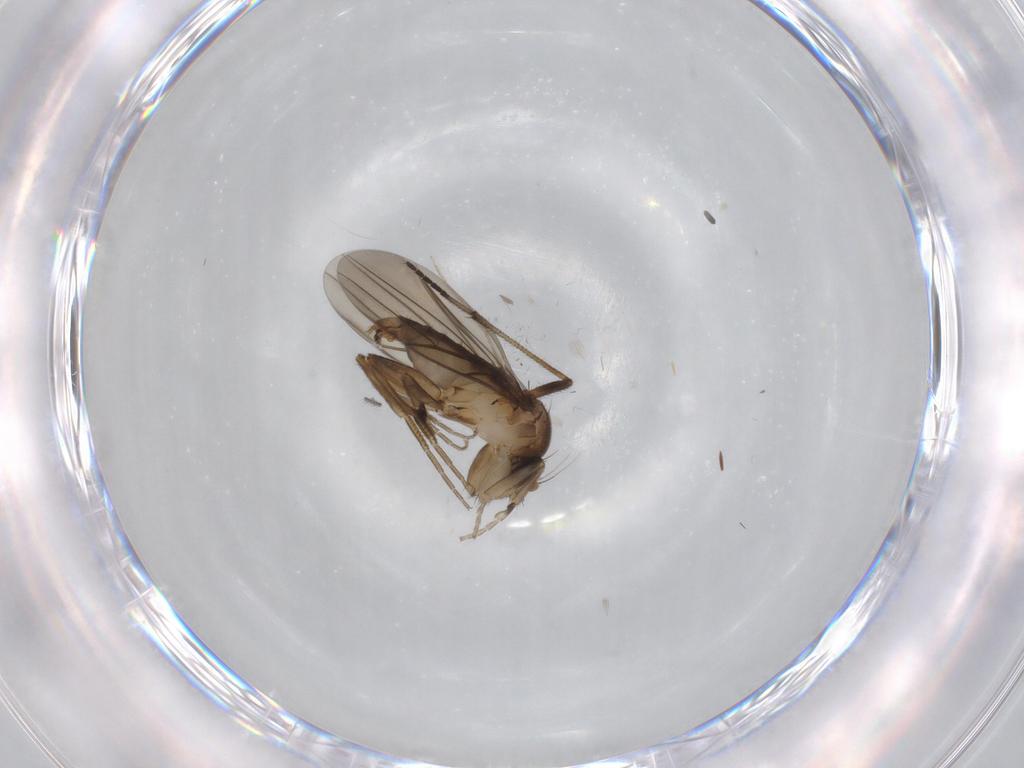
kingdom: Animalia
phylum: Arthropoda
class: Insecta
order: Diptera
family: Sciaridae
